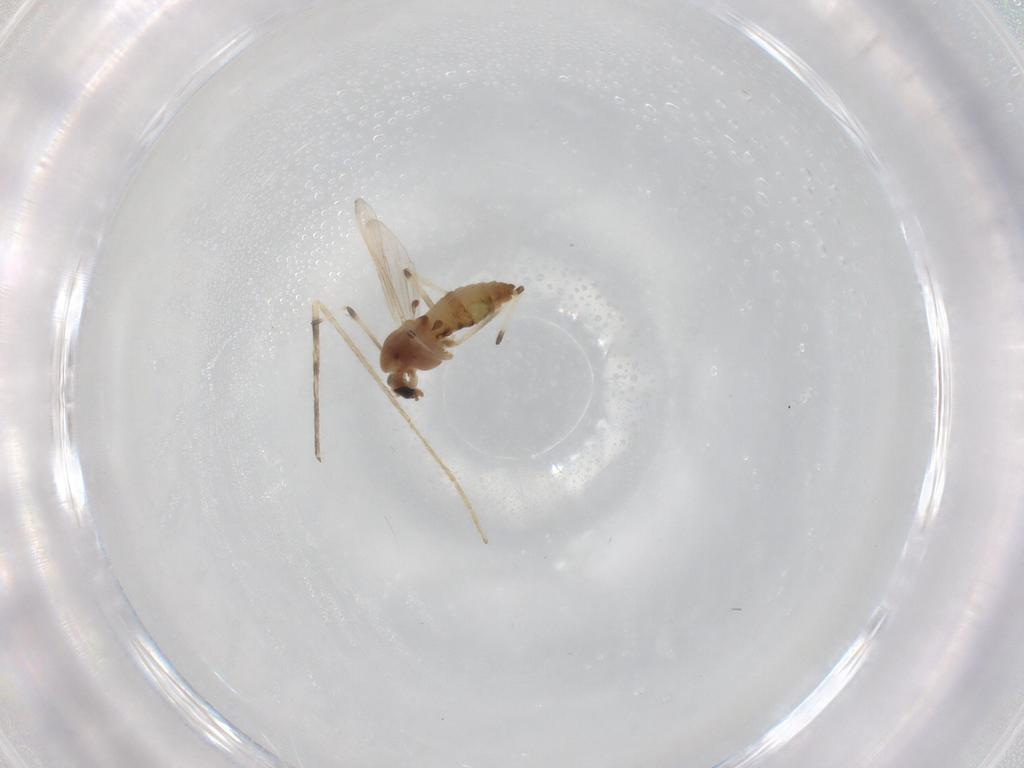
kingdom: Animalia
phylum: Arthropoda
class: Insecta
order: Diptera
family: Chironomidae
